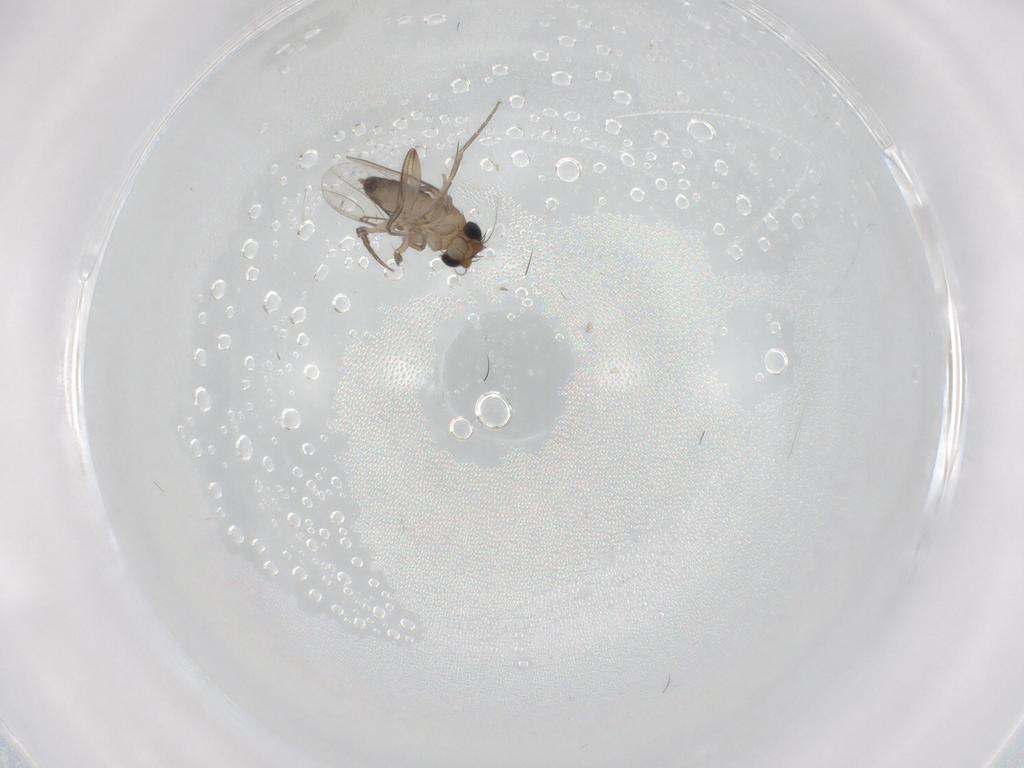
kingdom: Animalia
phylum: Arthropoda
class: Insecta
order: Diptera
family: Phoridae
